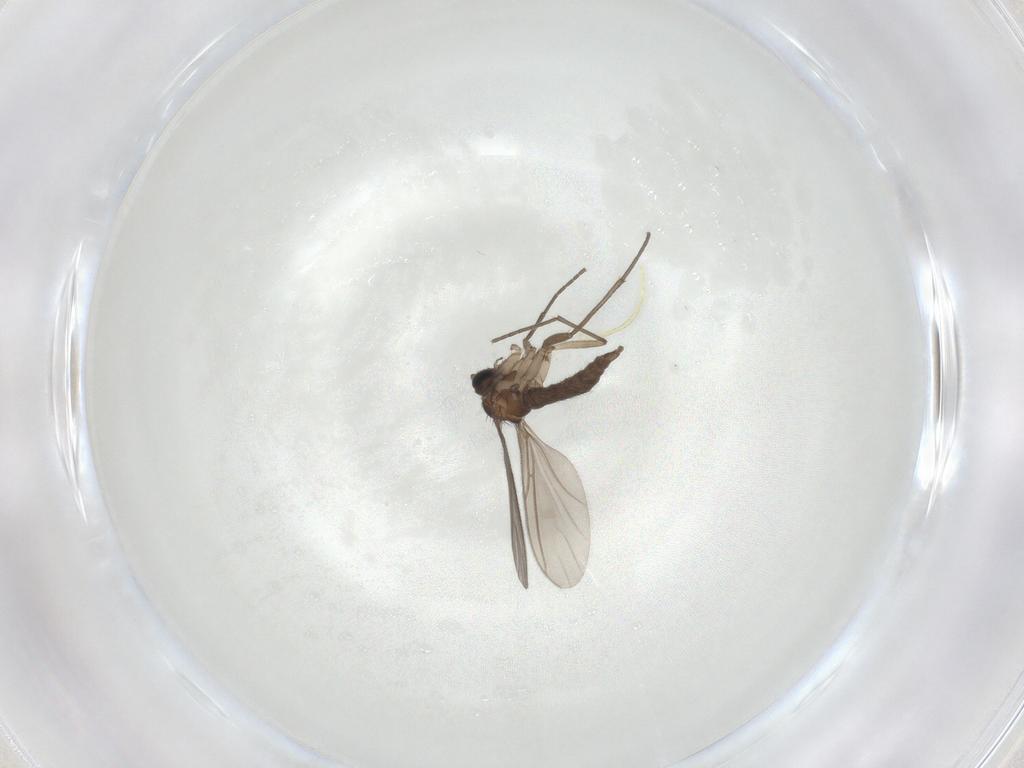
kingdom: Animalia
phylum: Arthropoda
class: Insecta
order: Diptera
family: Sciaridae
